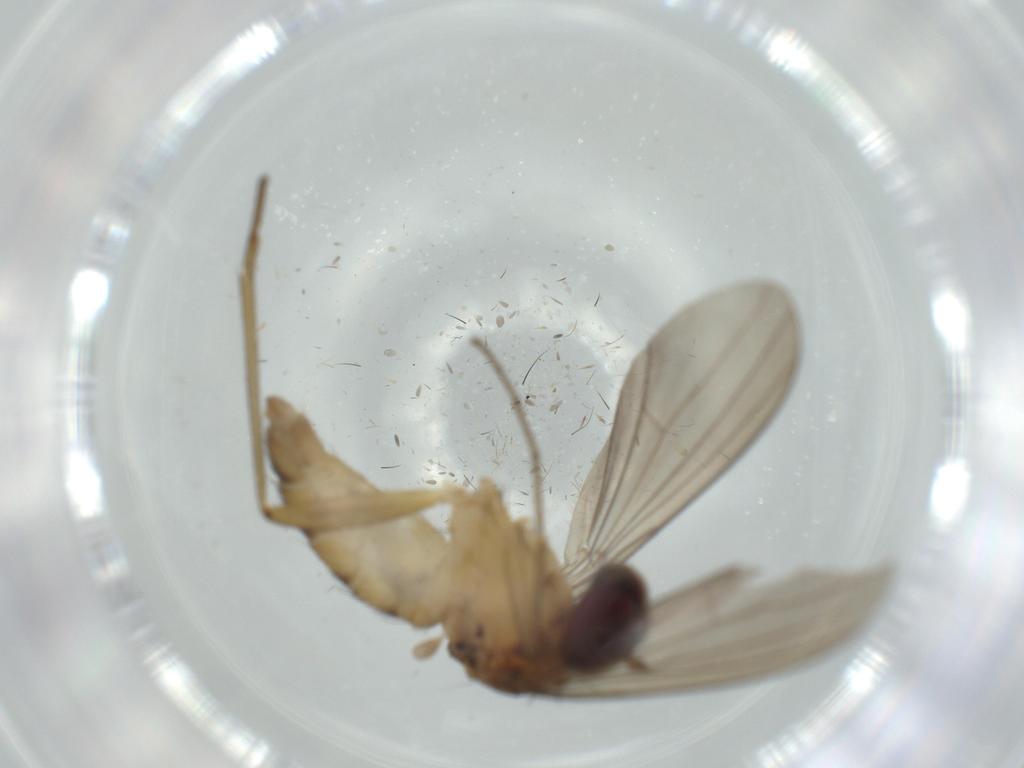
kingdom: Animalia
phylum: Arthropoda
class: Insecta
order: Diptera
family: Dolichopodidae
